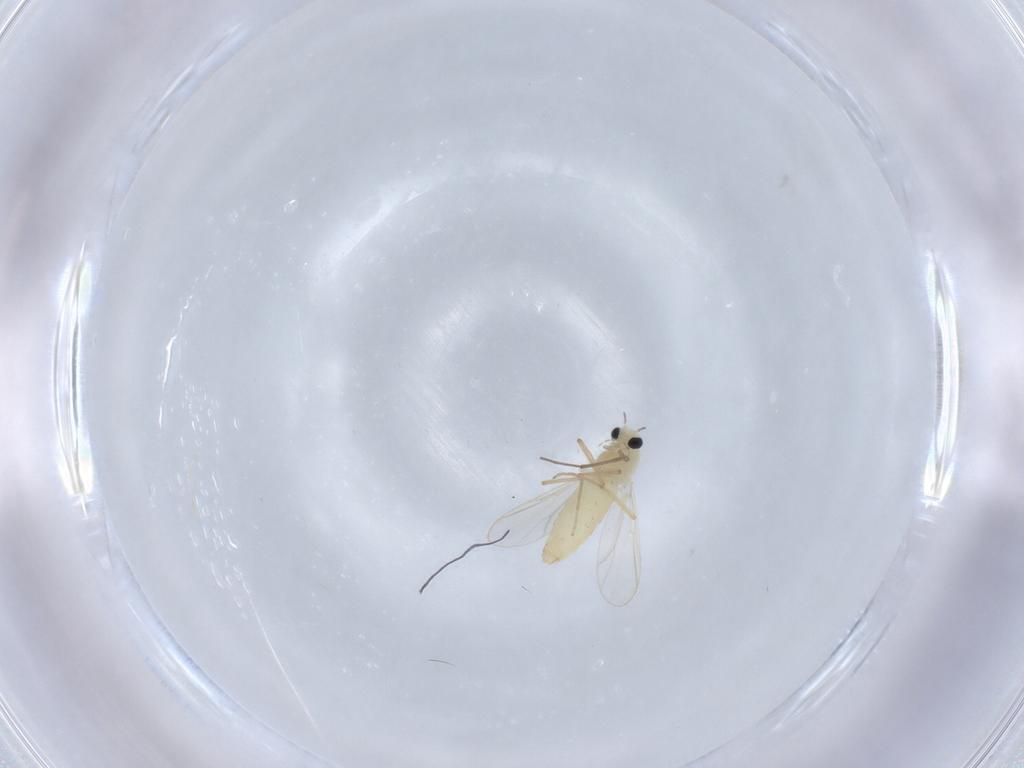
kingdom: Animalia
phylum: Arthropoda
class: Insecta
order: Diptera
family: Chironomidae
